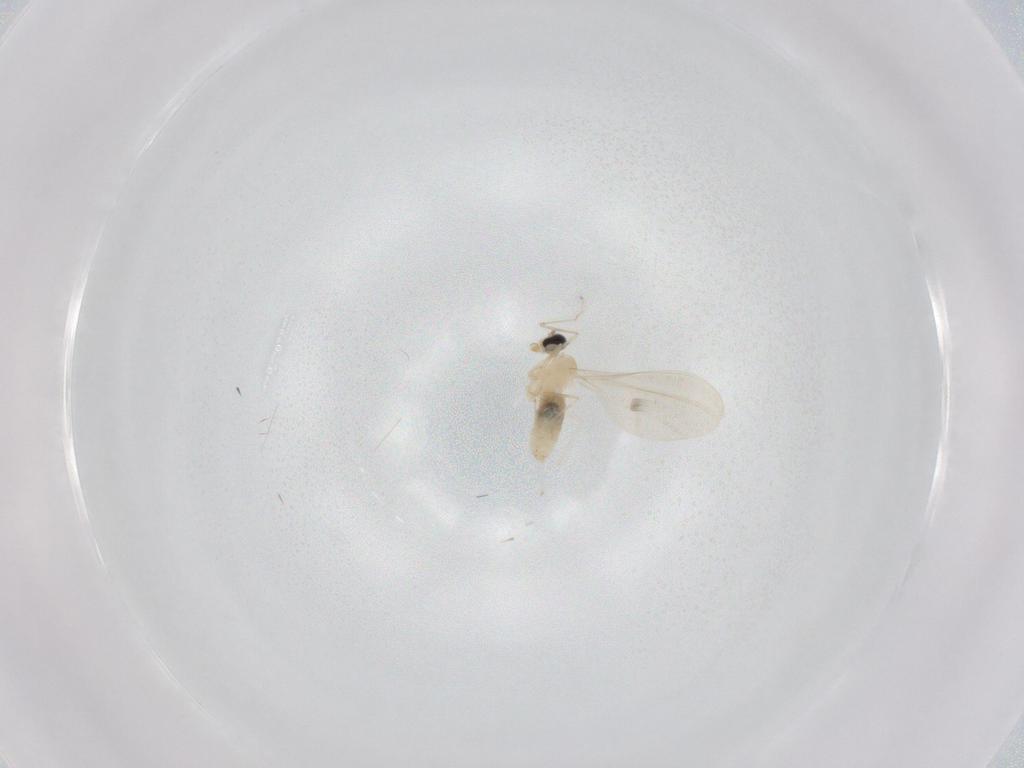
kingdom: Animalia
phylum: Arthropoda
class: Insecta
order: Diptera
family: Cecidomyiidae
